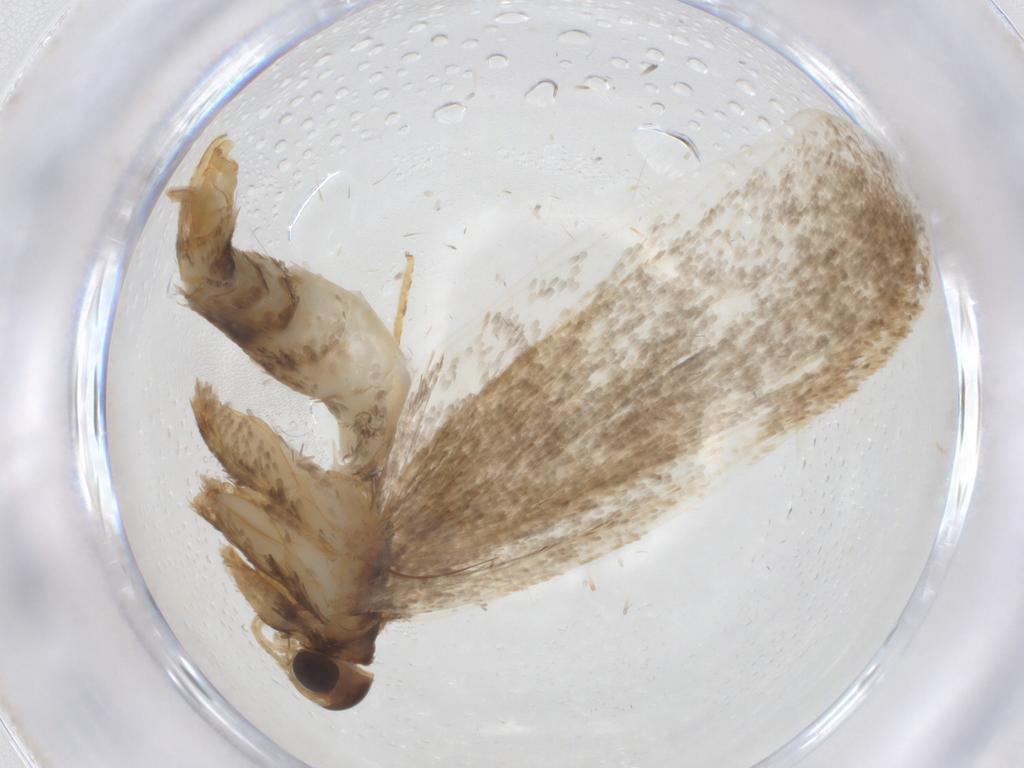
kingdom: Animalia
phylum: Arthropoda
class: Insecta
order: Lepidoptera
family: Lecithoceridae
